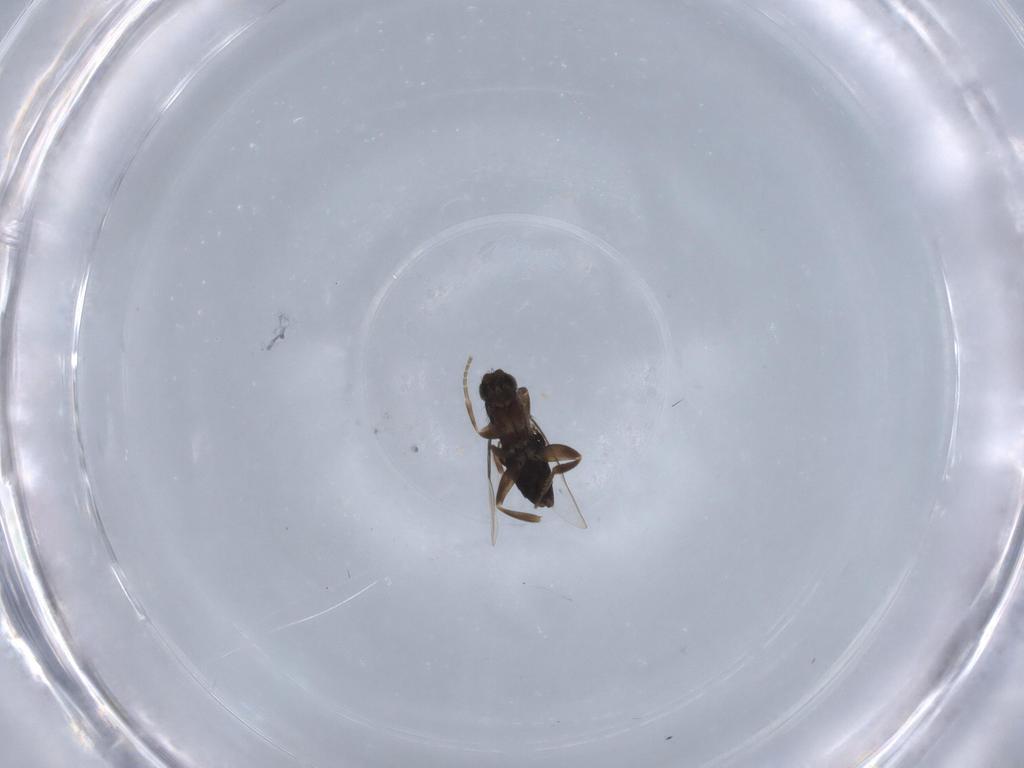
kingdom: Animalia
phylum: Arthropoda
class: Insecta
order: Diptera
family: Phoridae
